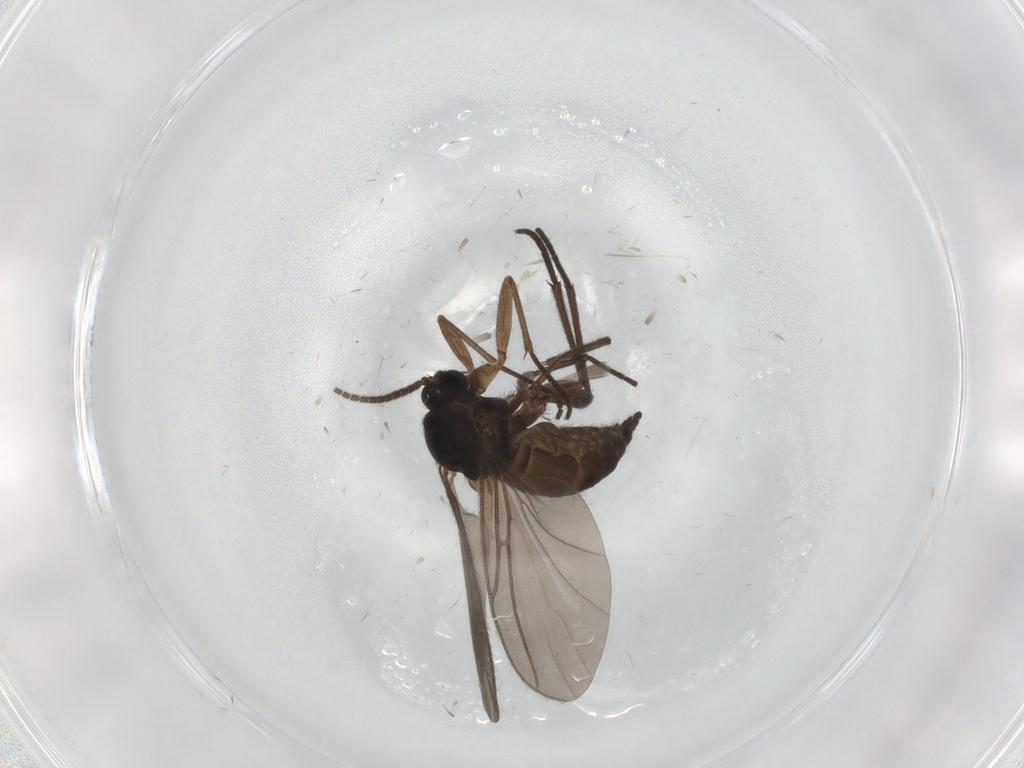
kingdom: Animalia
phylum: Arthropoda
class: Insecta
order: Diptera
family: Sciaridae
